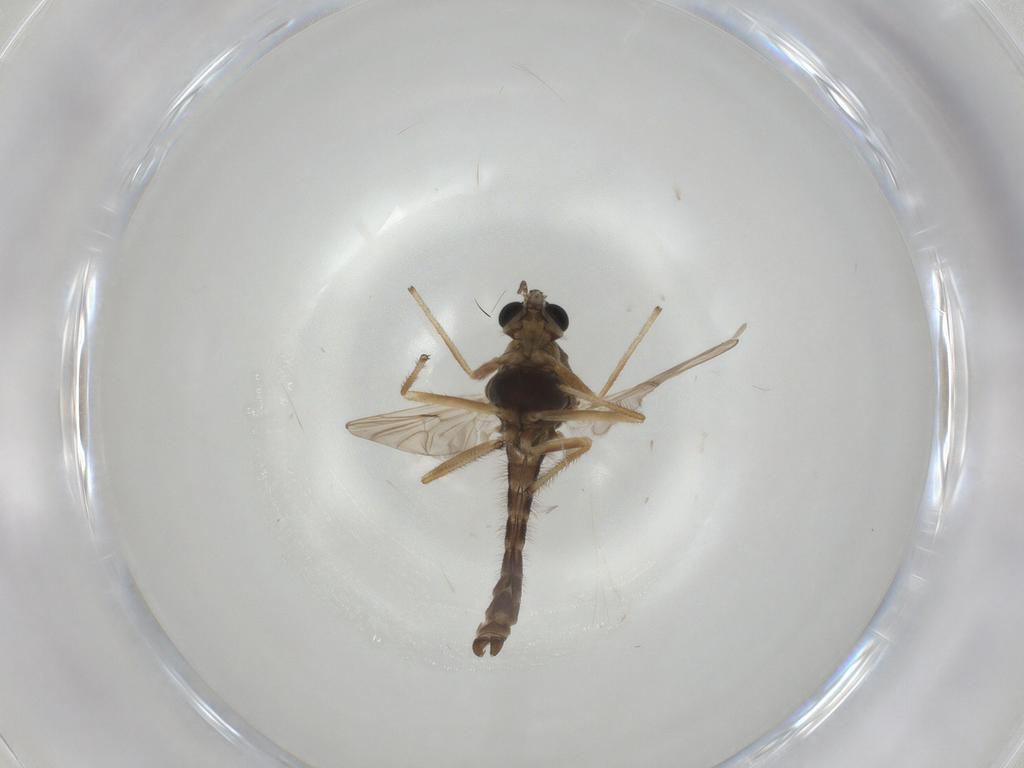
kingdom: Animalia
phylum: Arthropoda
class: Insecta
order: Diptera
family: Chironomidae
